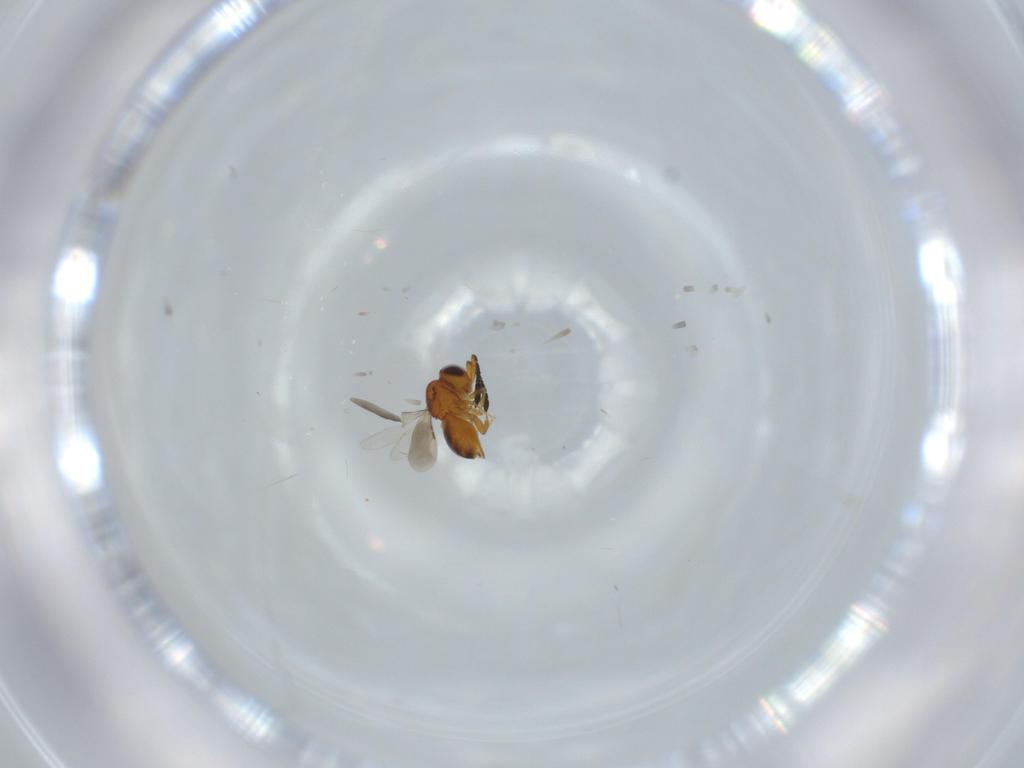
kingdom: Animalia
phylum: Arthropoda
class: Insecta
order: Hymenoptera
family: Ceraphronidae
